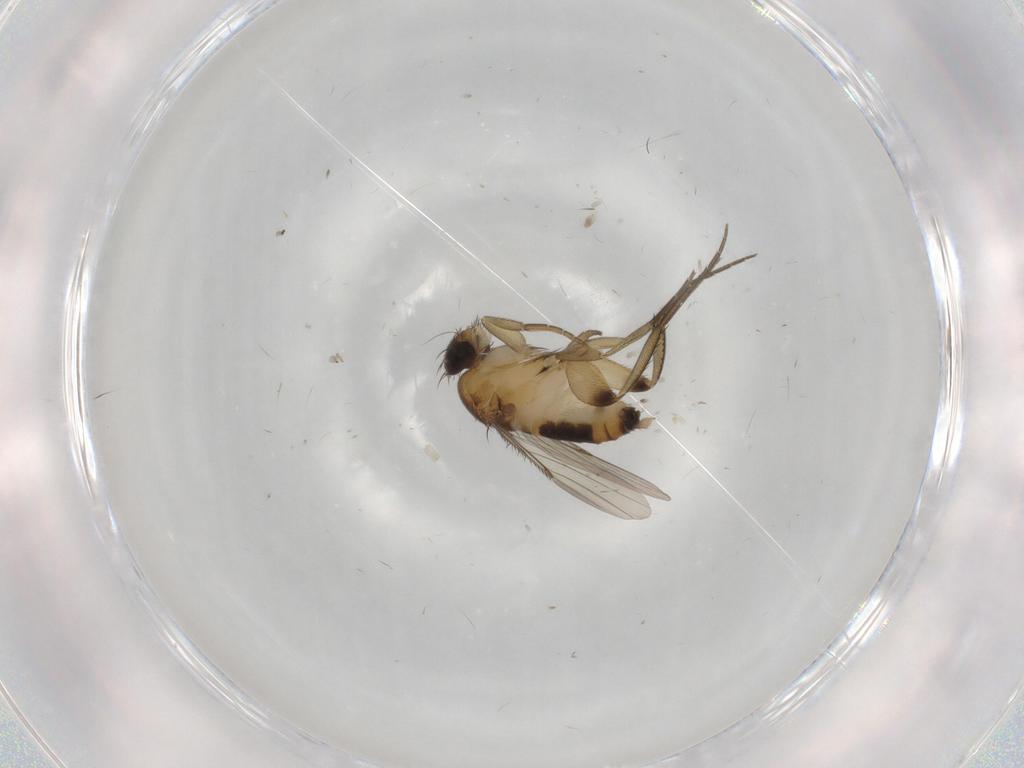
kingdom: Animalia
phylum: Arthropoda
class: Insecta
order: Diptera
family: Phoridae
